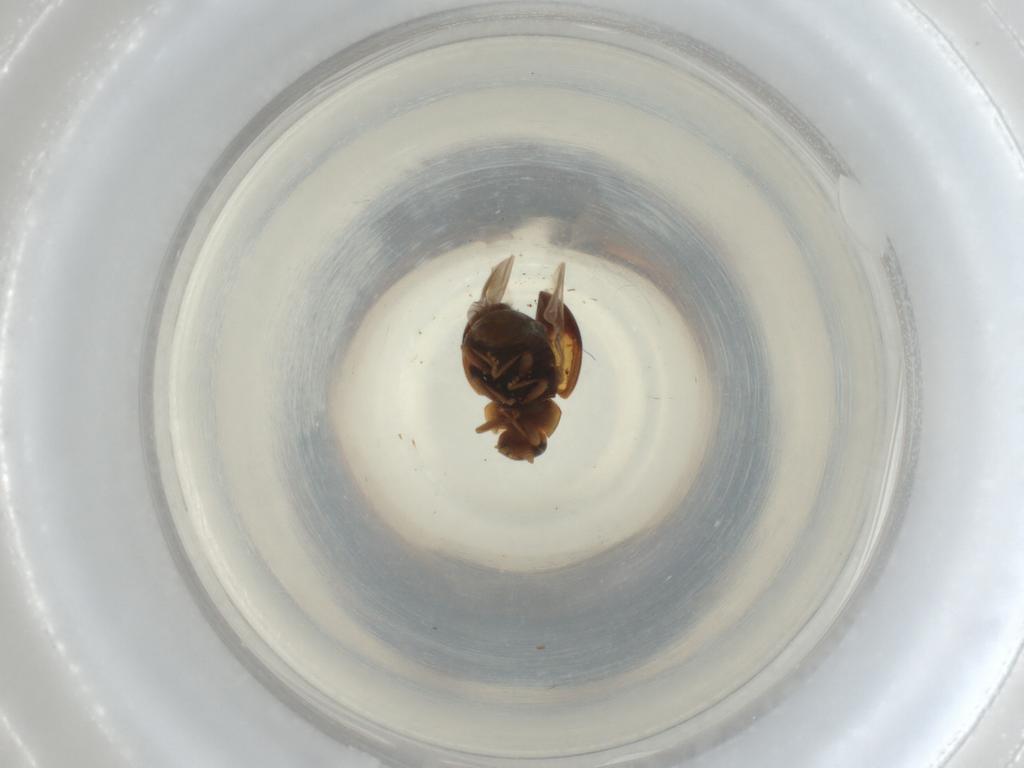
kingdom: Animalia
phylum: Arthropoda
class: Insecta
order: Coleoptera
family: Coccinellidae
